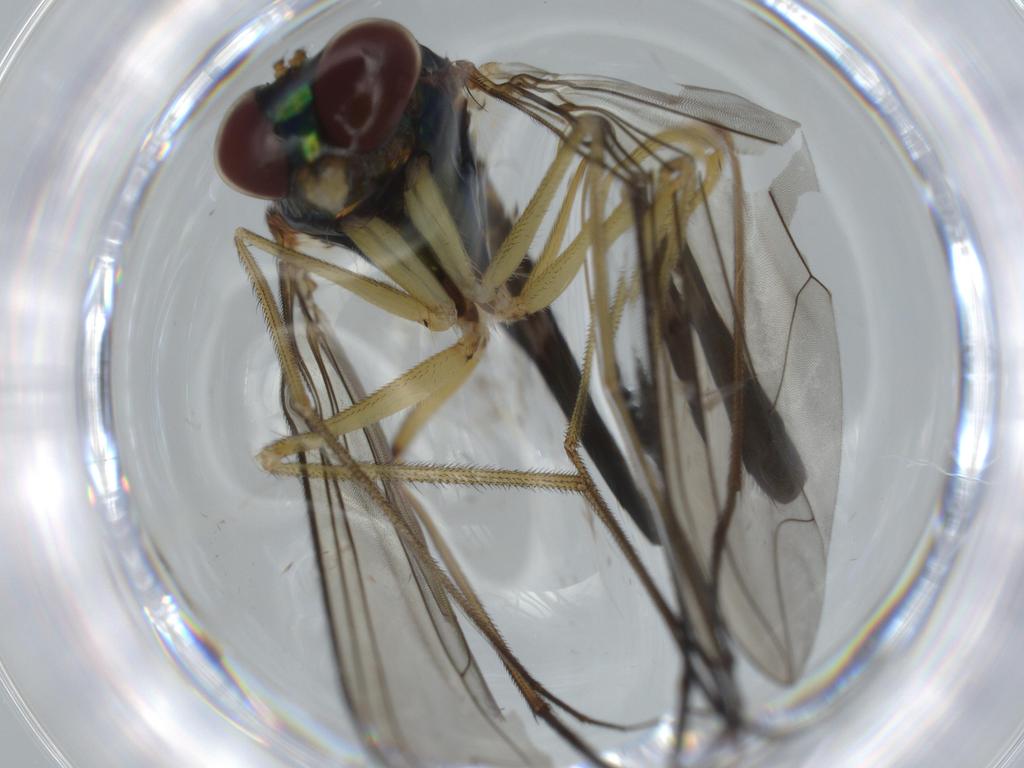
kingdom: Animalia
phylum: Arthropoda
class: Insecta
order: Diptera
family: Dolichopodidae
